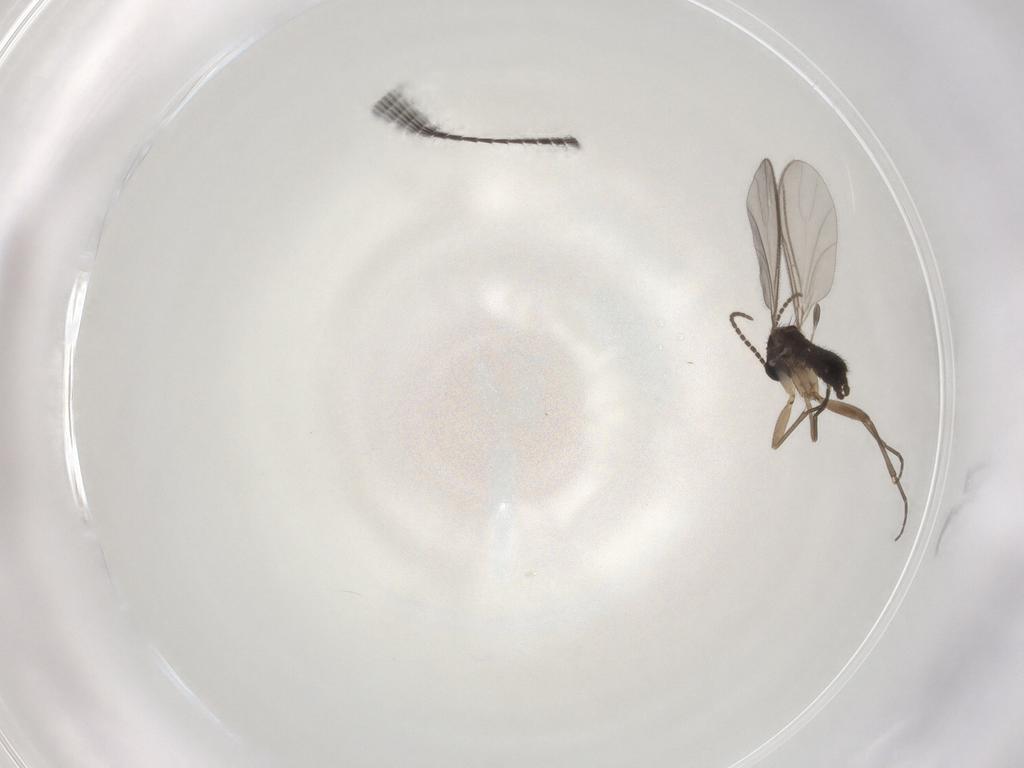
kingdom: Animalia
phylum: Arthropoda
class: Insecta
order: Diptera
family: Sciaridae
